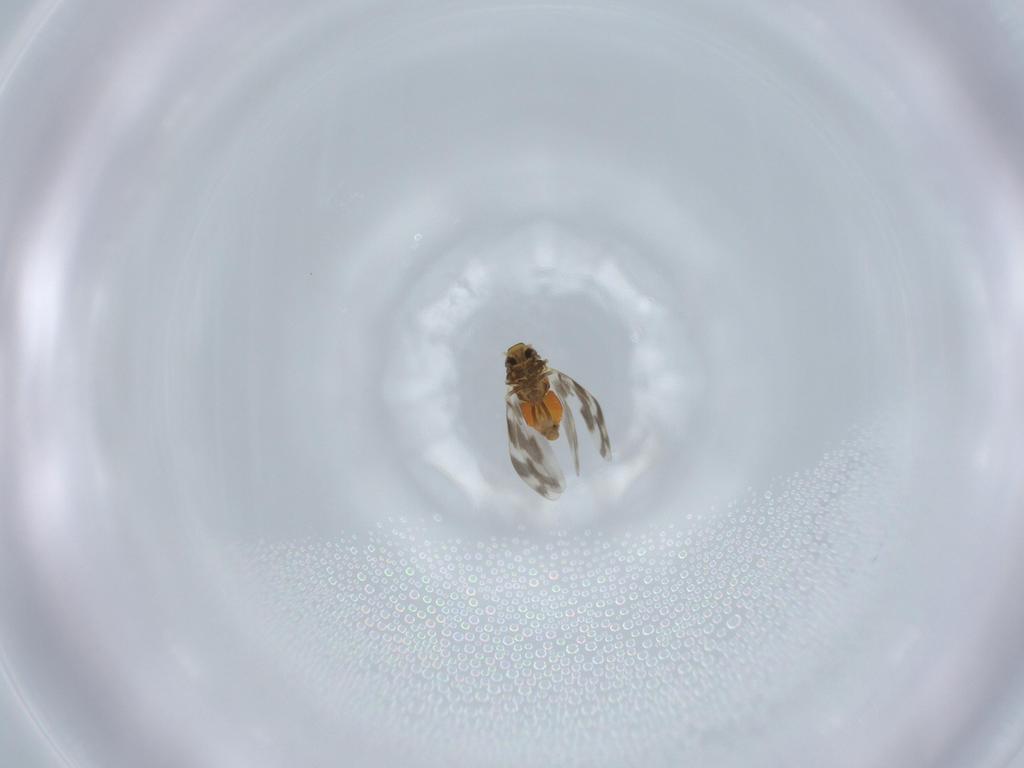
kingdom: Animalia
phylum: Arthropoda
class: Insecta
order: Hemiptera
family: Aleyrodidae
